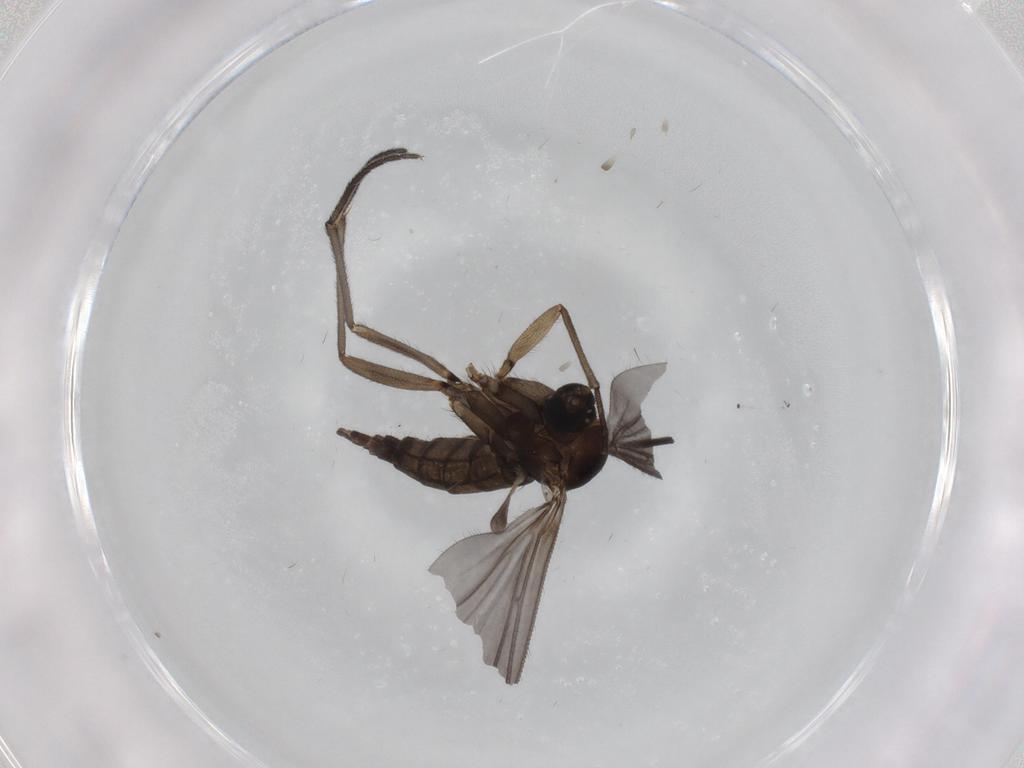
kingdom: Animalia
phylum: Arthropoda
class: Insecta
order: Diptera
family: Sciaridae
